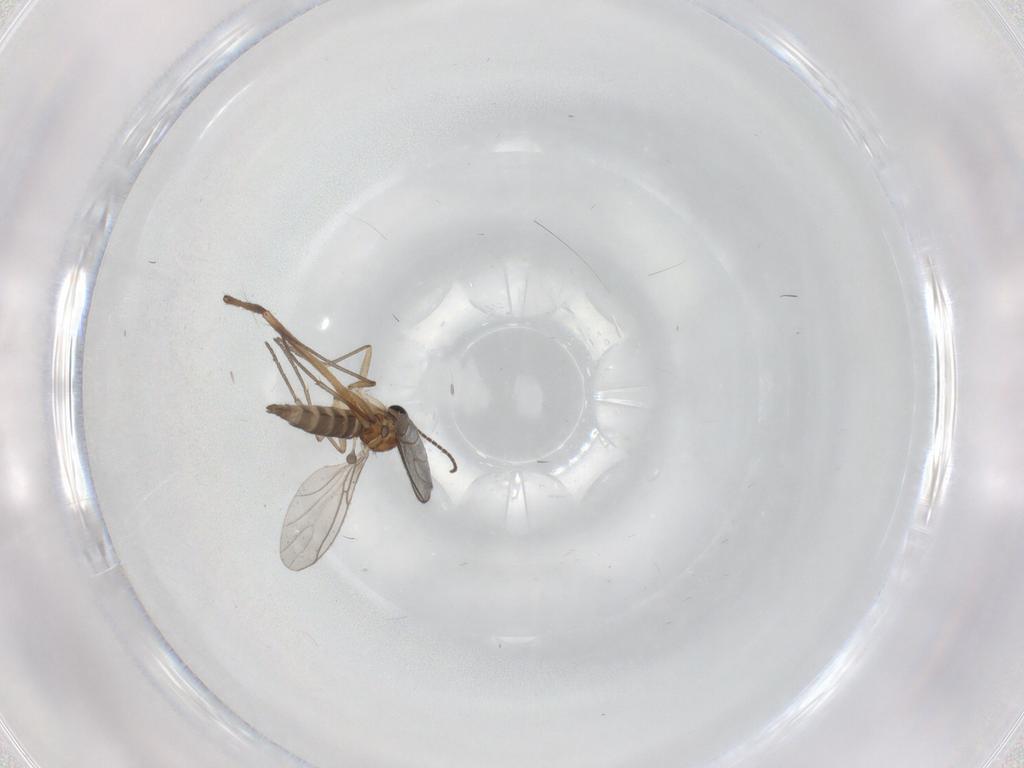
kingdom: Animalia
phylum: Arthropoda
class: Insecta
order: Diptera
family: Sciaridae
